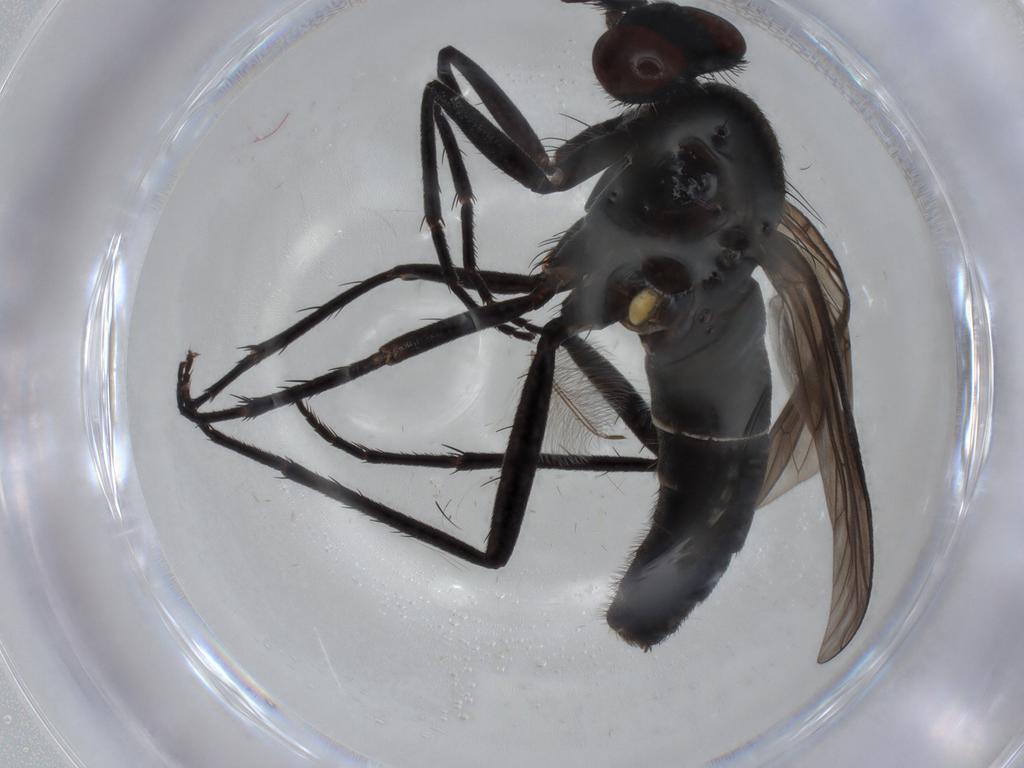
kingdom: Animalia
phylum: Arthropoda
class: Insecta
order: Diptera
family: Therevidae
